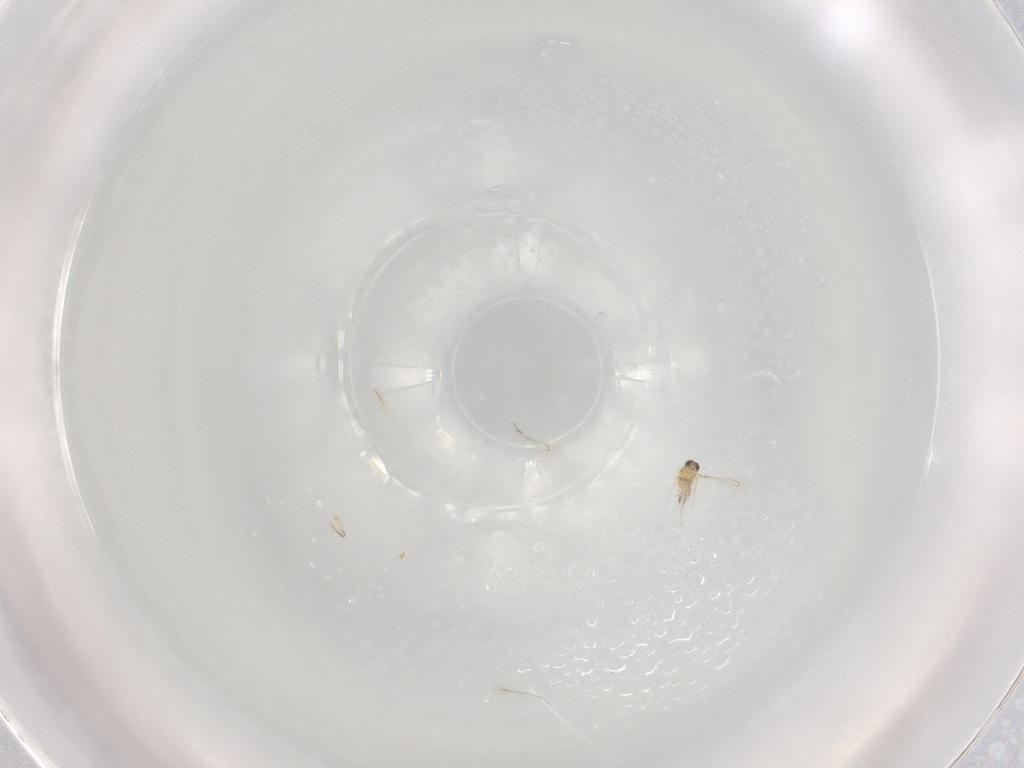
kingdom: Animalia
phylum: Arthropoda
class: Insecta
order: Hymenoptera
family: Mymaridae
